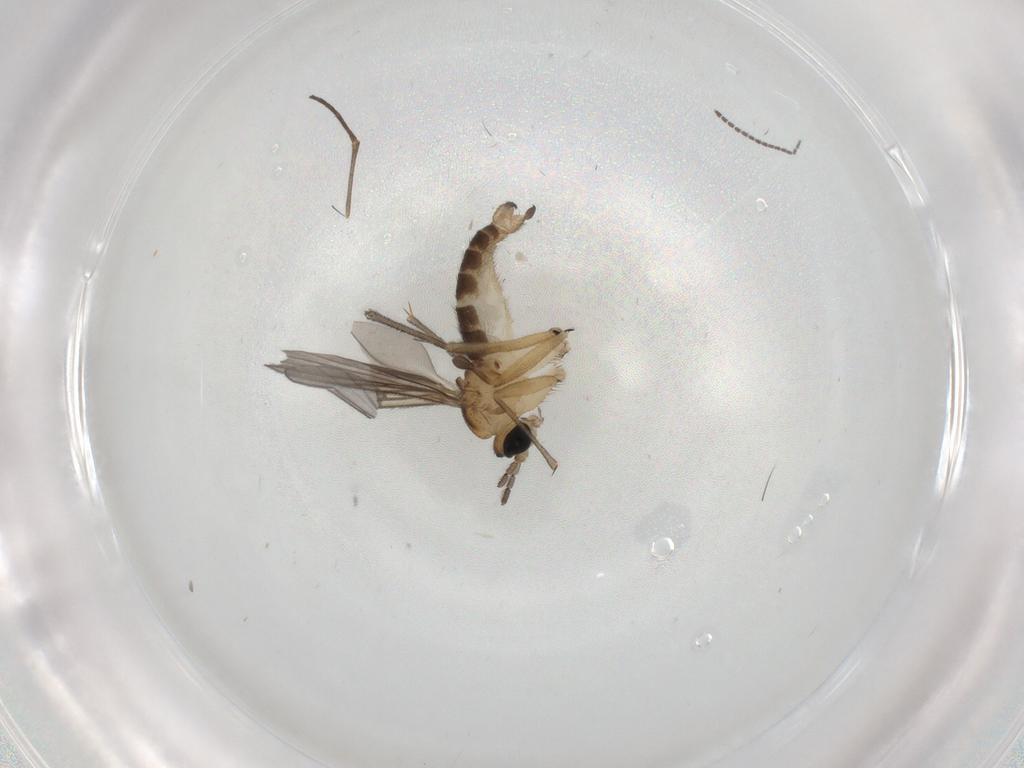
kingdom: Animalia
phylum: Arthropoda
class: Insecta
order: Diptera
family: Sciaridae
